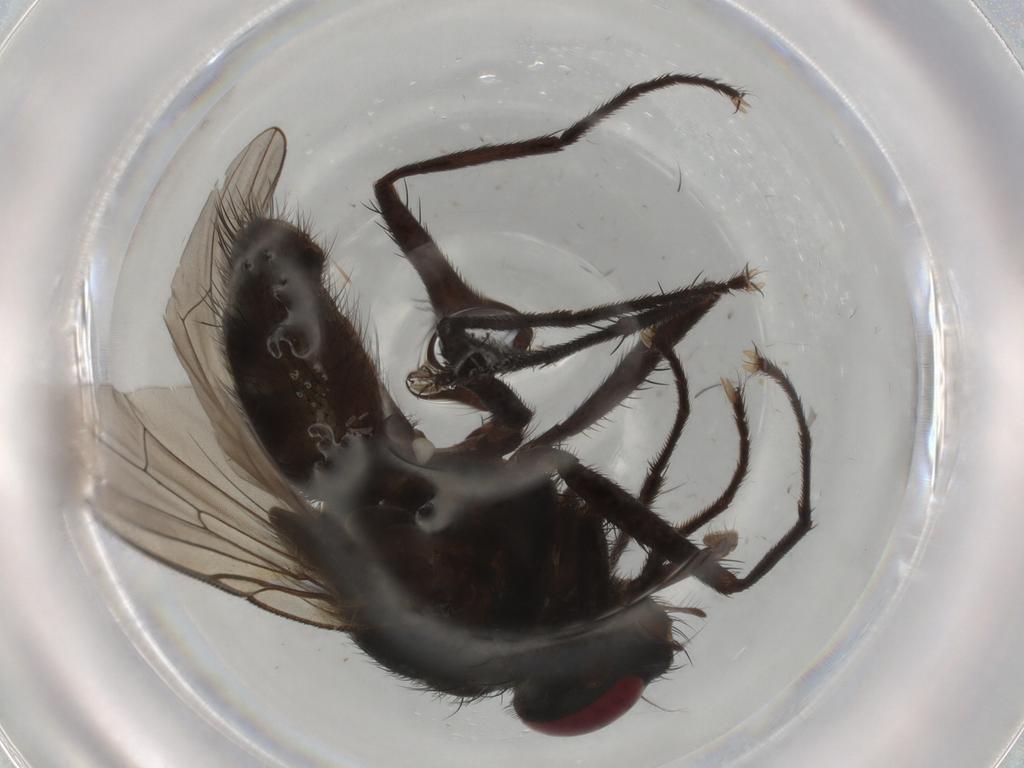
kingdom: Animalia
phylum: Arthropoda
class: Insecta
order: Diptera
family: Muscidae
